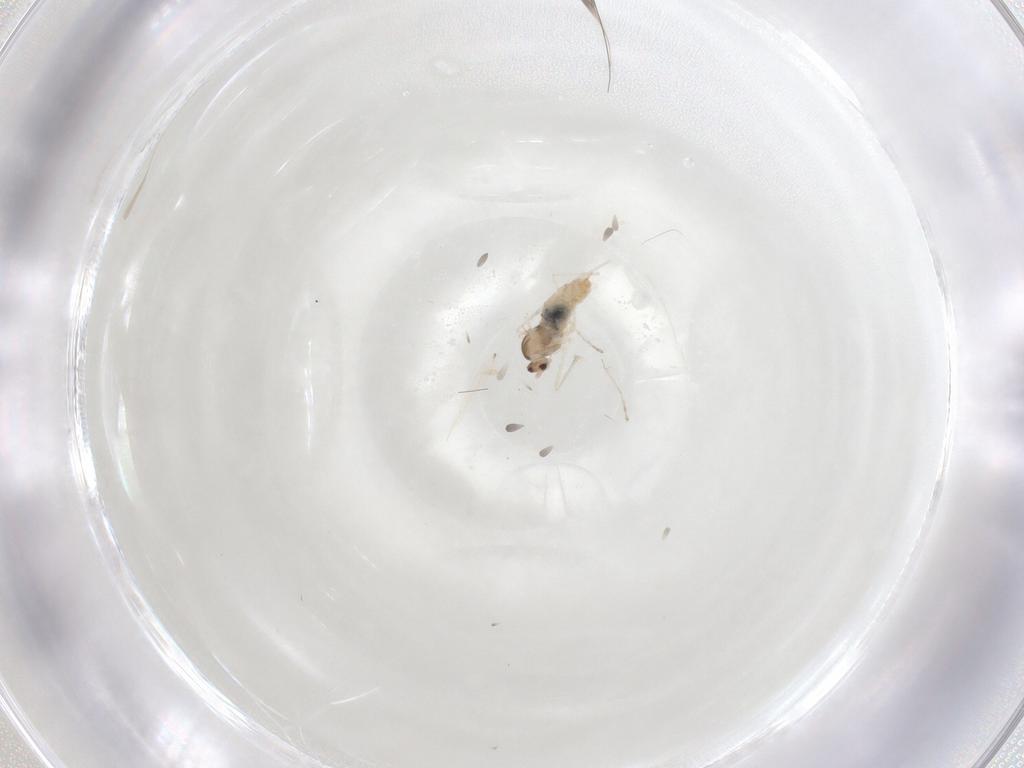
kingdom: Animalia
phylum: Arthropoda
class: Insecta
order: Diptera
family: Cecidomyiidae
